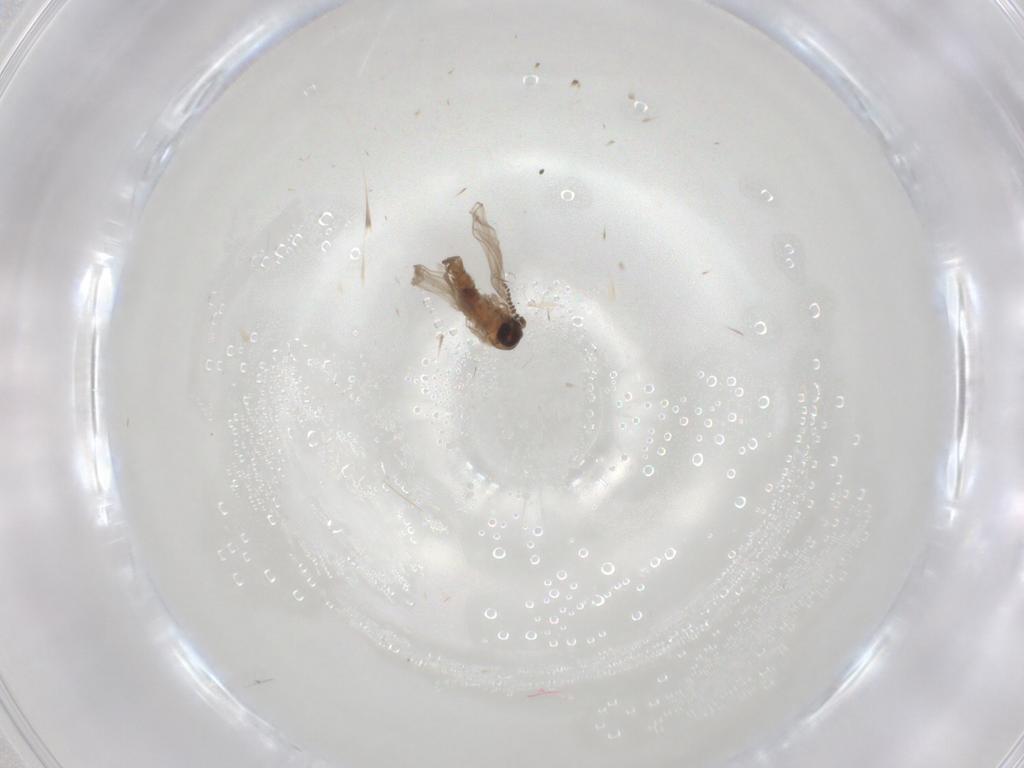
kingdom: Animalia
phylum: Arthropoda
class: Insecta
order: Diptera
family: Psychodidae
